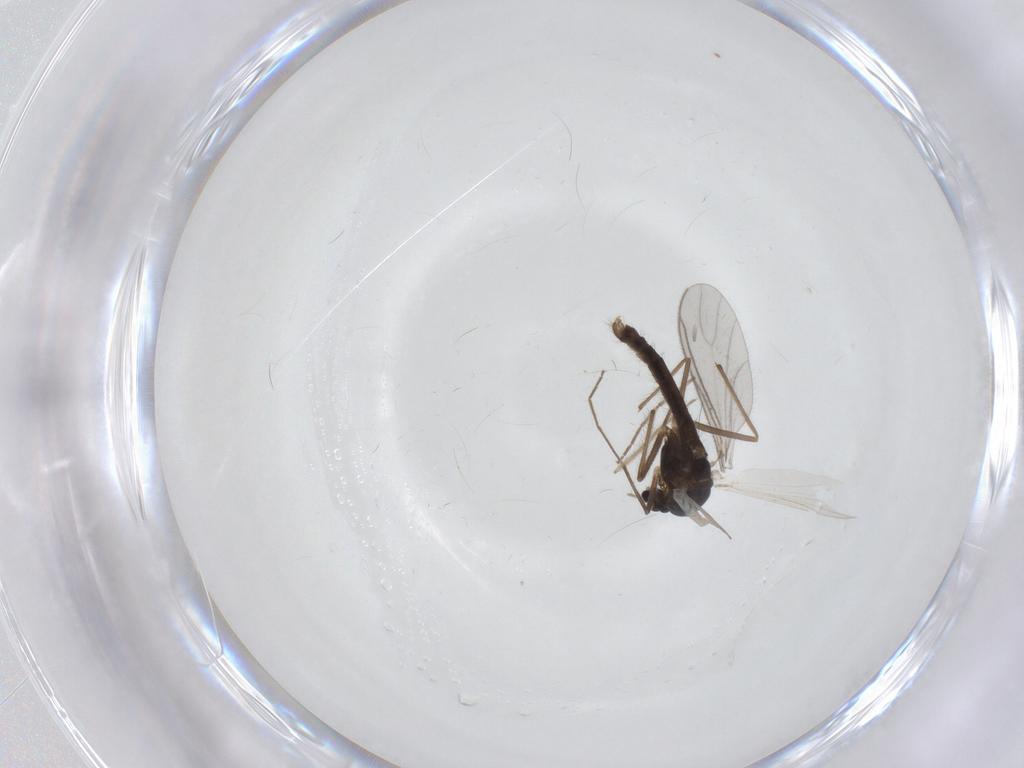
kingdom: Animalia
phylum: Arthropoda
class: Insecta
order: Diptera
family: Chironomidae
